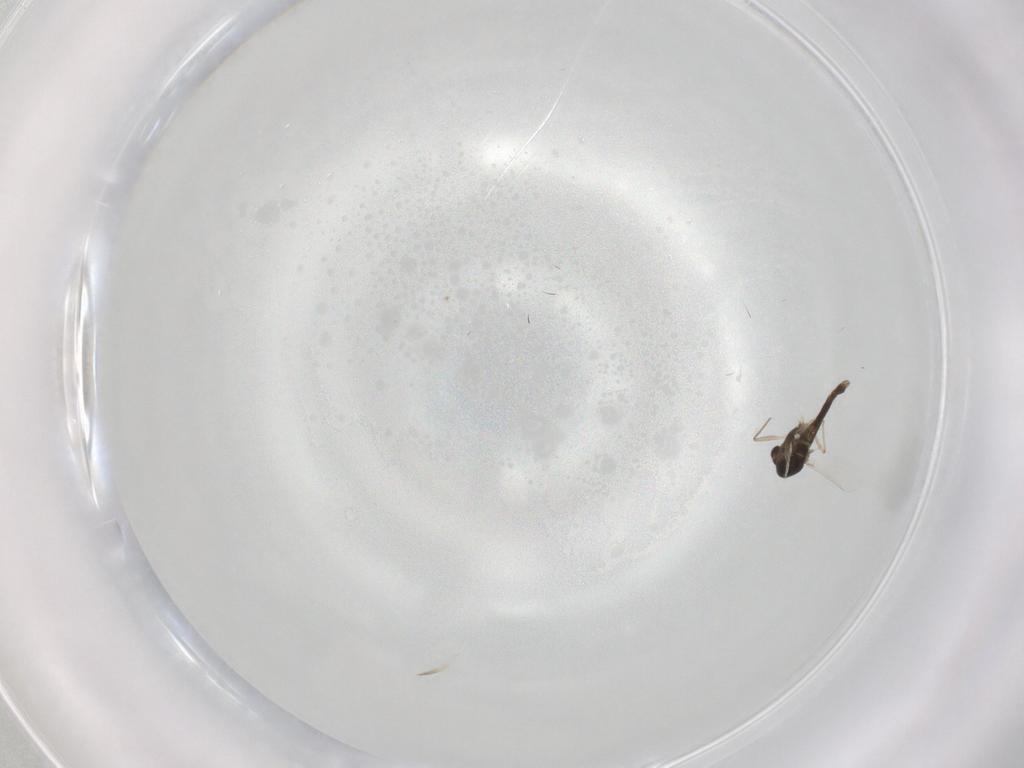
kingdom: Animalia
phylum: Arthropoda
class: Insecta
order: Diptera
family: Chironomidae
